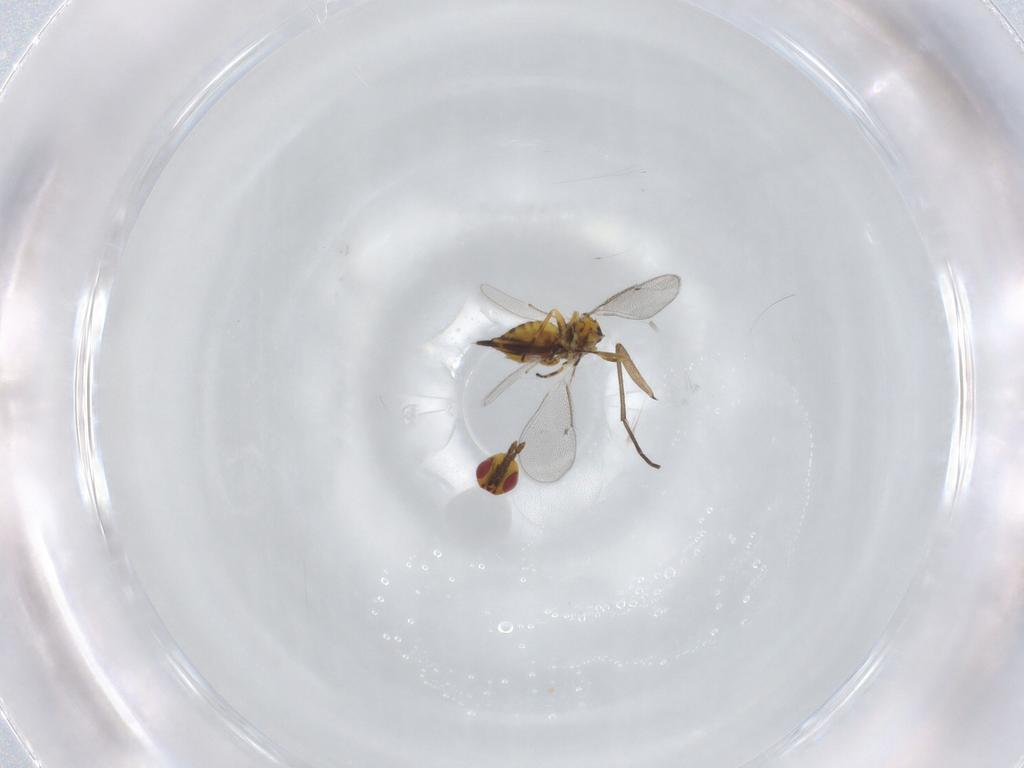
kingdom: Animalia
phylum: Arthropoda
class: Insecta
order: Hymenoptera
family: Eulophidae
